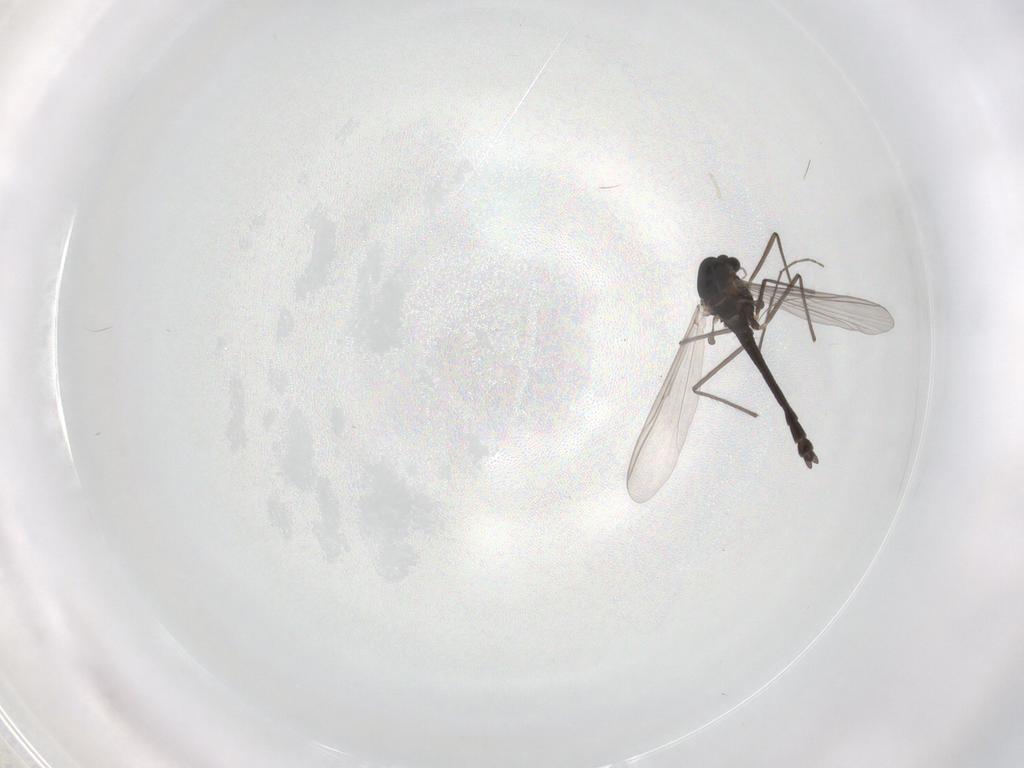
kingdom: Animalia
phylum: Arthropoda
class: Insecta
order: Diptera
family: Chironomidae
